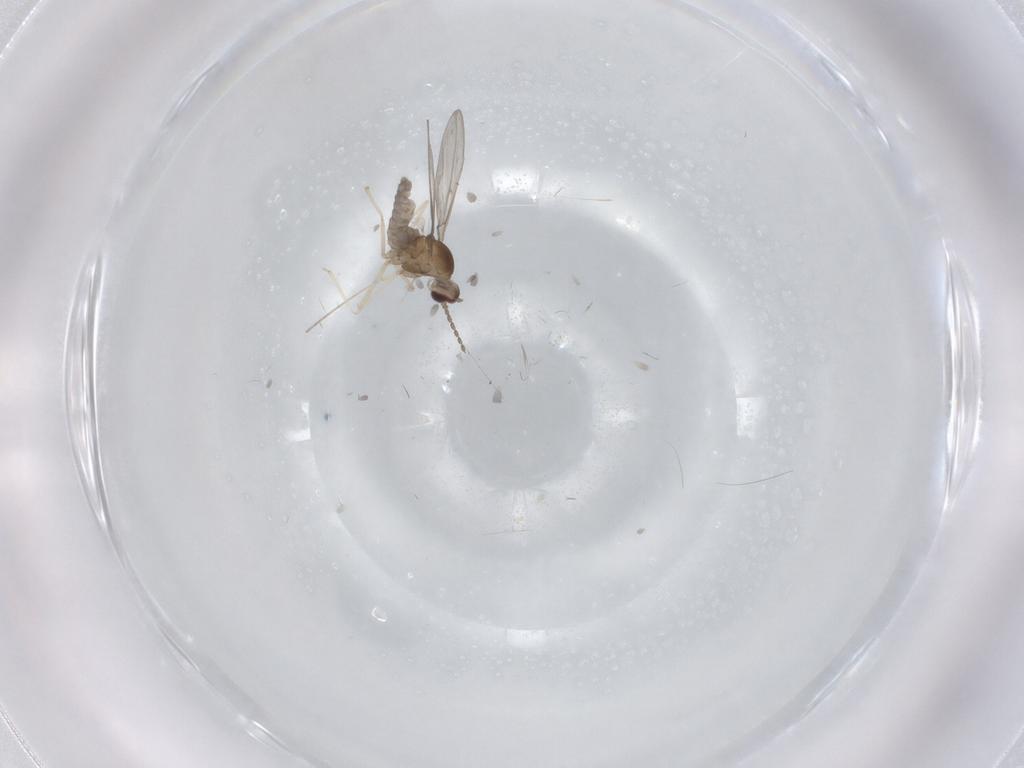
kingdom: Animalia
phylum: Arthropoda
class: Insecta
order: Diptera
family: Cecidomyiidae
